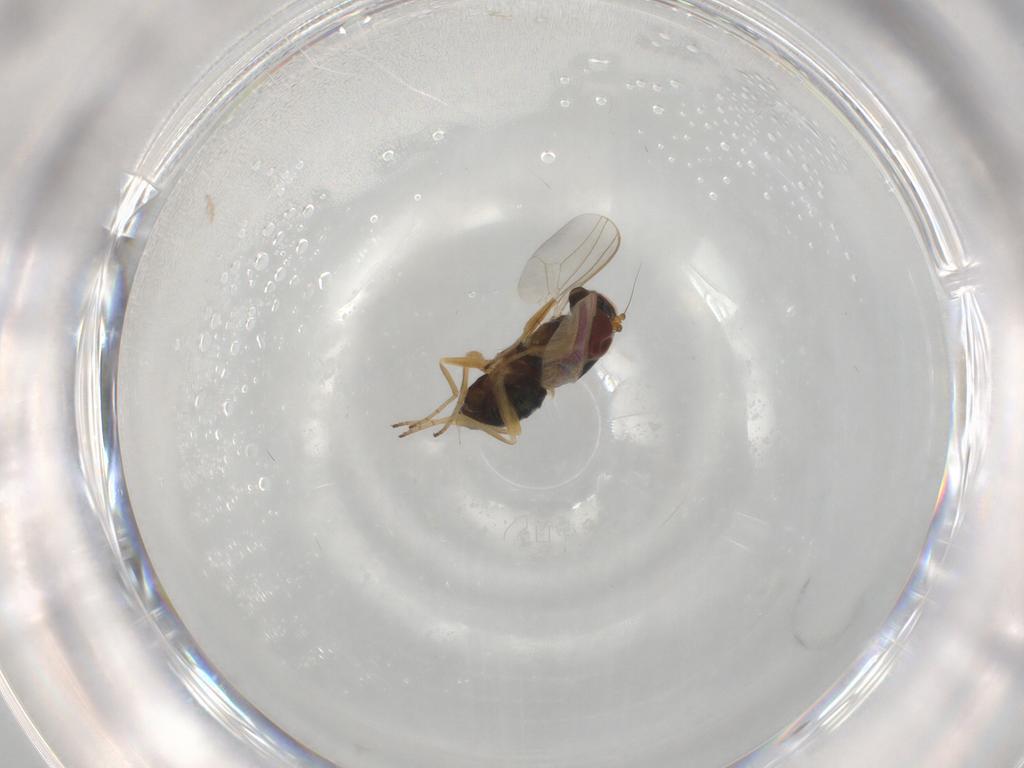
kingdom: Animalia
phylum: Arthropoda
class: Insecta
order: Diptera
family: Dolichopodidae
